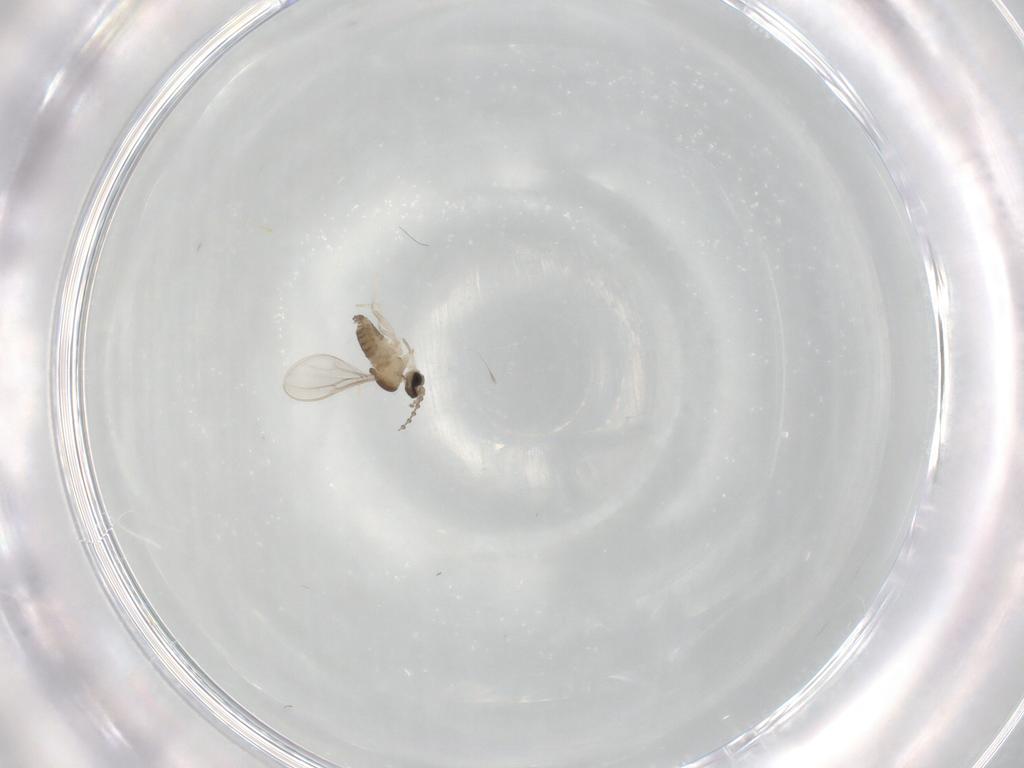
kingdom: Animalia
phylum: Arthropoda
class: Insecta
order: Diptera
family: Cecidomyiidae
